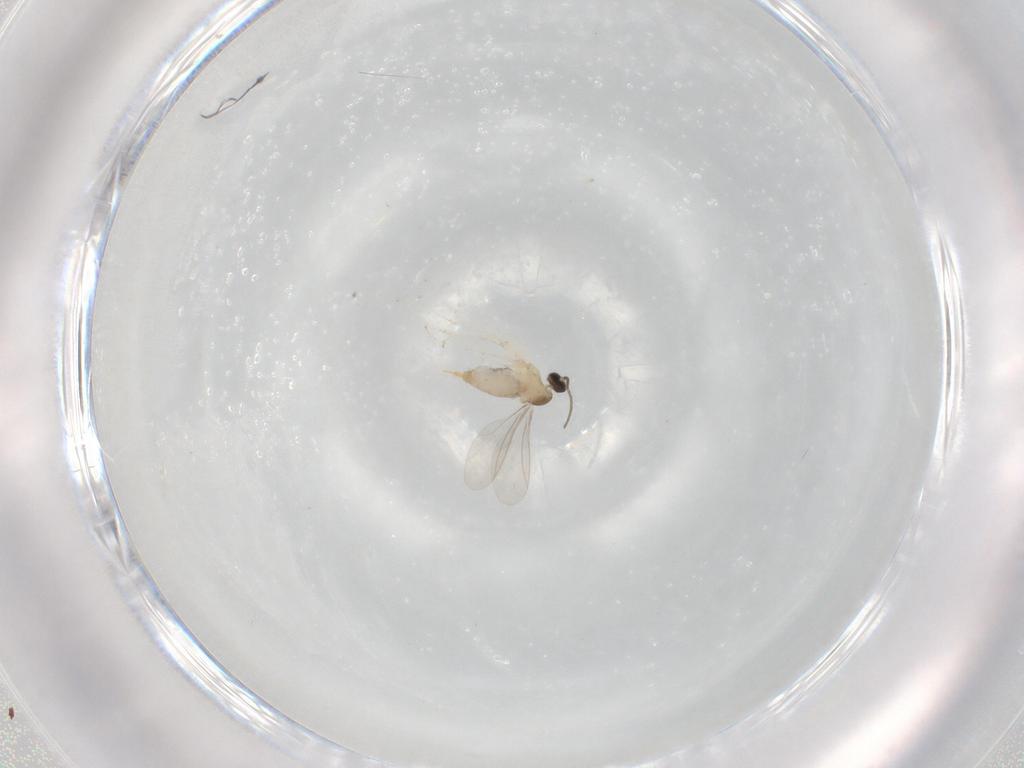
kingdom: Animalia
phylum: Arthropoda
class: Insecta
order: Diptera
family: Cecidomyiidae
